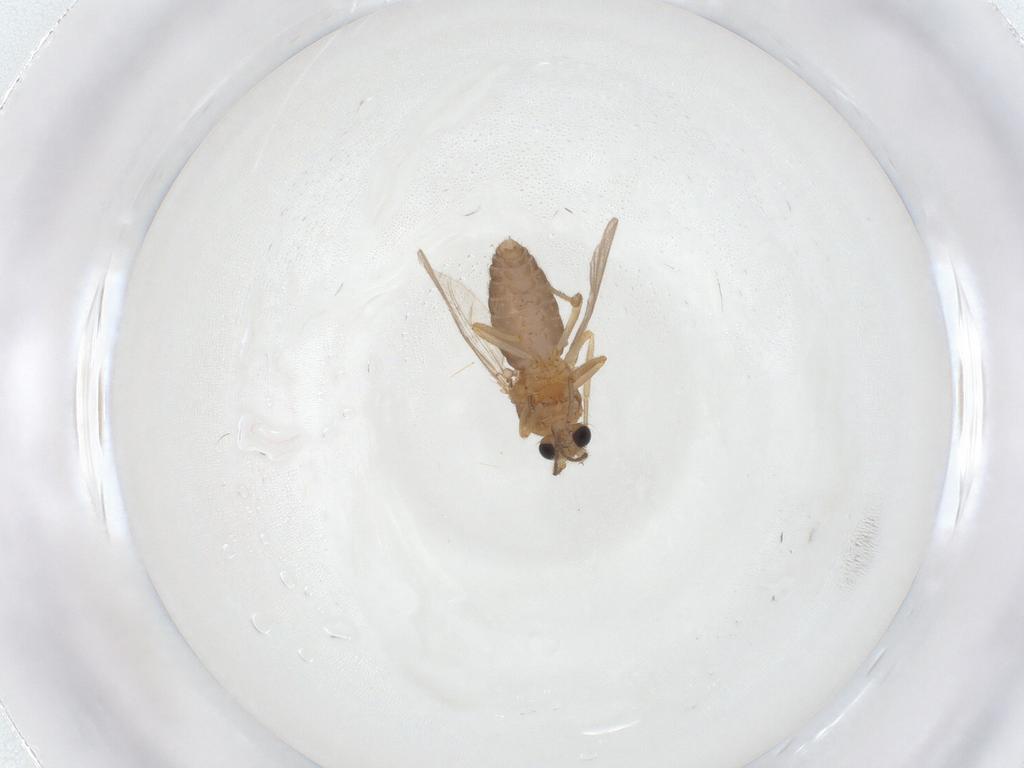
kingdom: Animalia
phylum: Arthropoda
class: Insecta
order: Diptera
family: Ceratopogonidae
